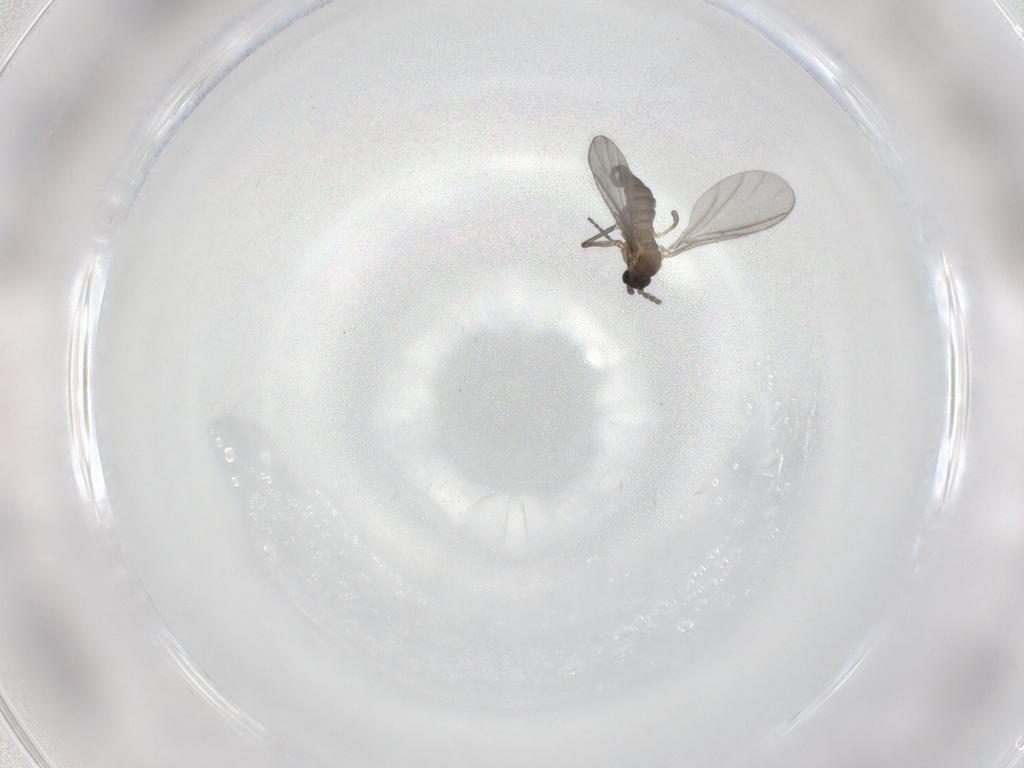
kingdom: Animalia
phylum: Arthropoda
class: Insecta
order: Diptera
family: Sciaridae
